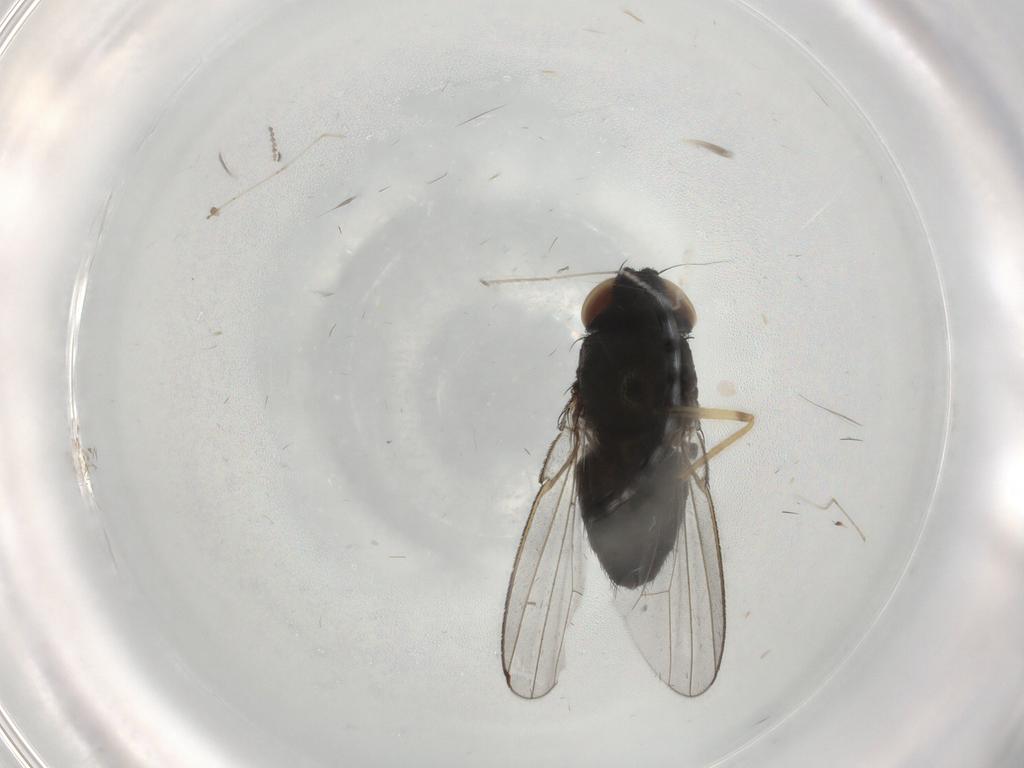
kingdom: Animalia
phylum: Arthropoda
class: Insecta
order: Diptera
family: Milichiidae
